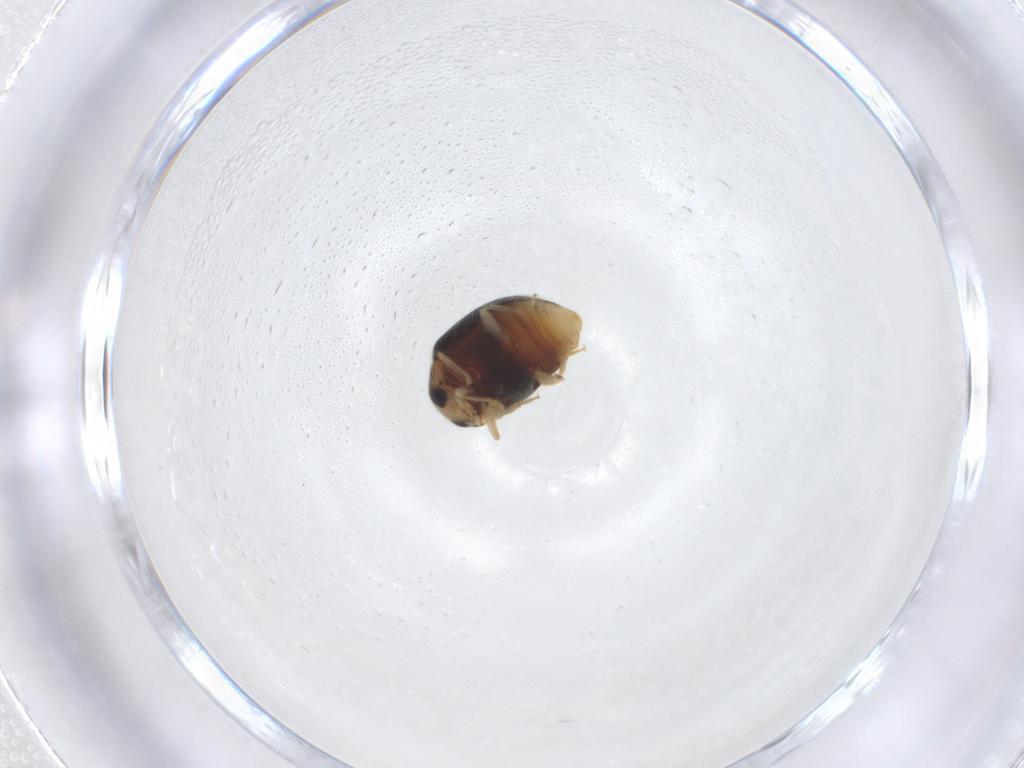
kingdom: Animalia
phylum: Arthropoda
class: Insecta
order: Coleoptera
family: Coccinellidae
